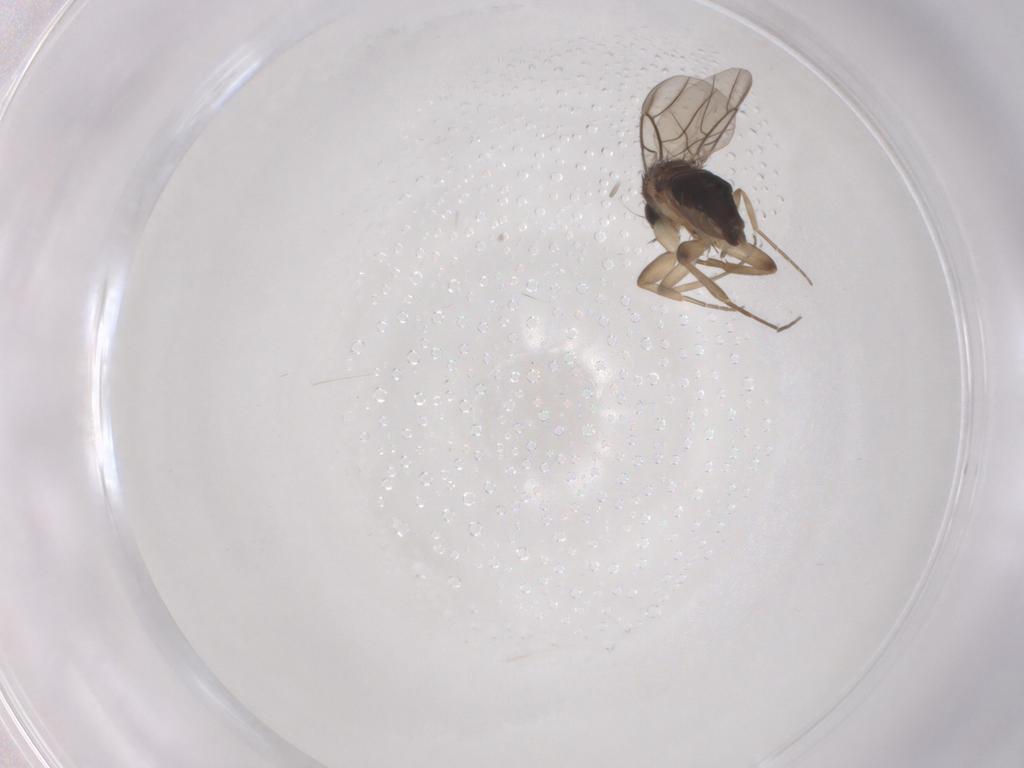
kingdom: Animalia
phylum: Arthropoda
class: Insecta
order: Diptera
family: Phoridae
